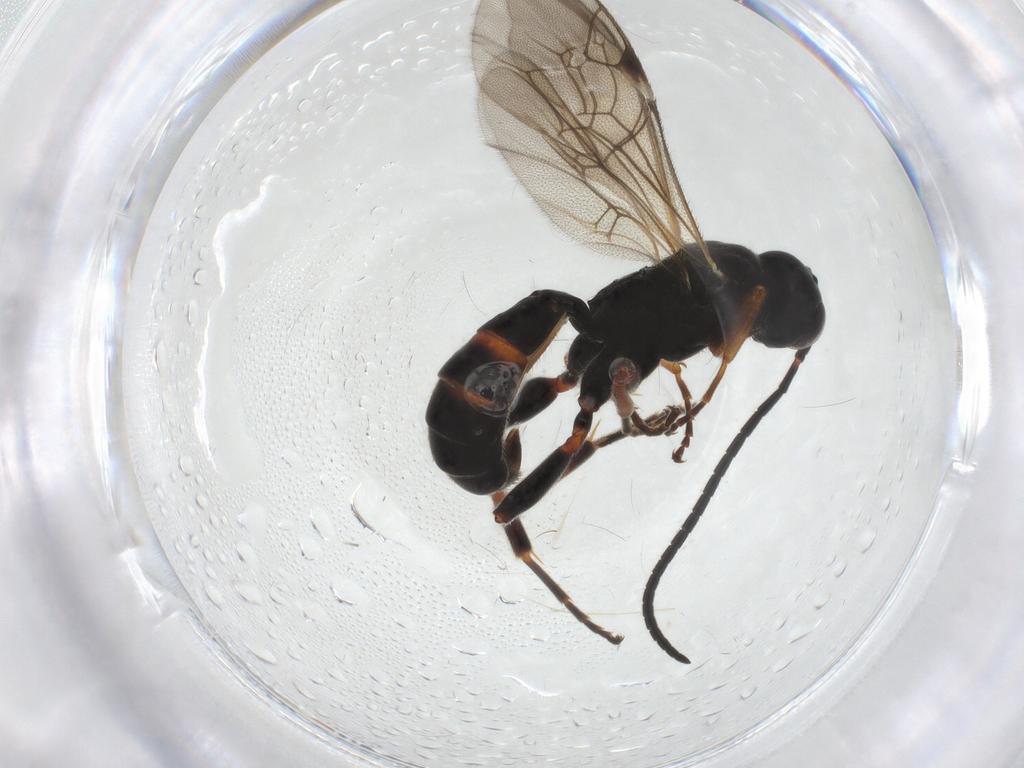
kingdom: Animalia
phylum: Arthropoda
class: Insecta
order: Hymenoptera
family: Ichneumonidae
